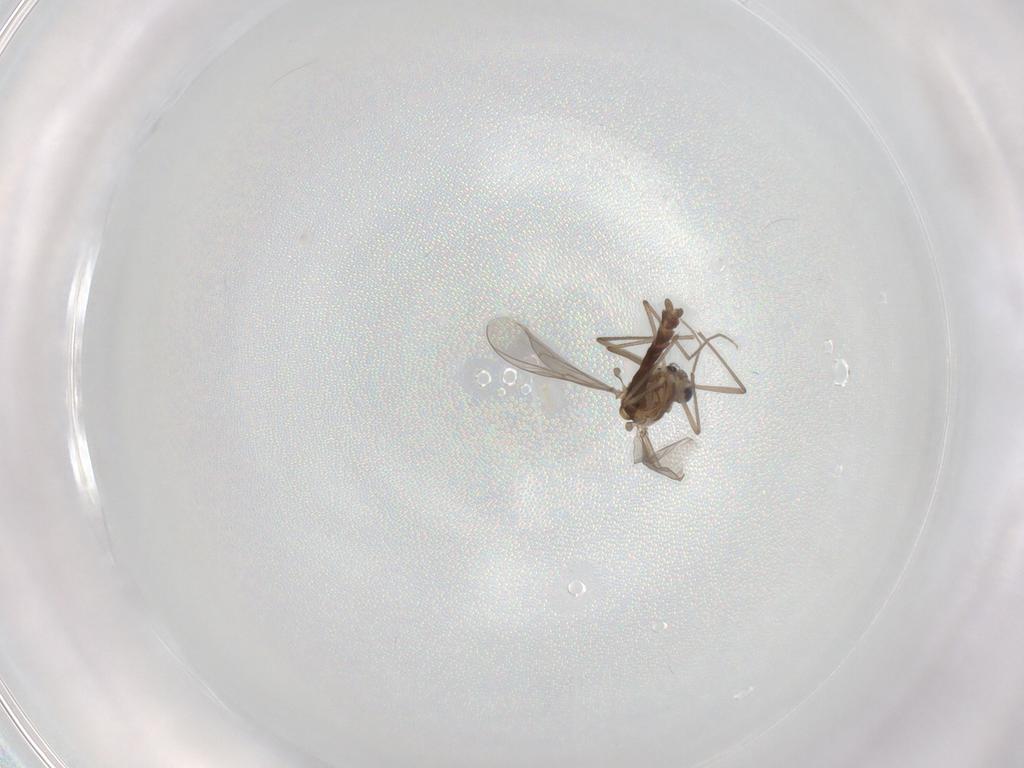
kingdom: Animalia
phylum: Arthropoda
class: Insecta
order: Diptera
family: Chironomidae
